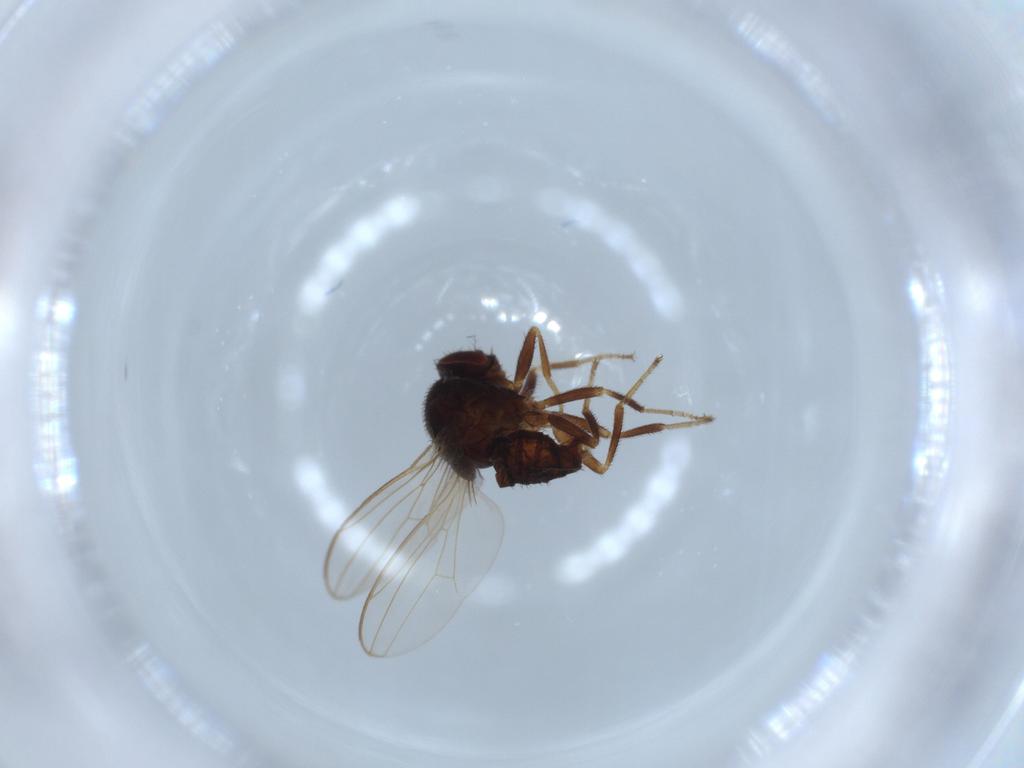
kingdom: Animalia
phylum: Arthropoda
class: Insecta
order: Diptera
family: Drosophilidae
